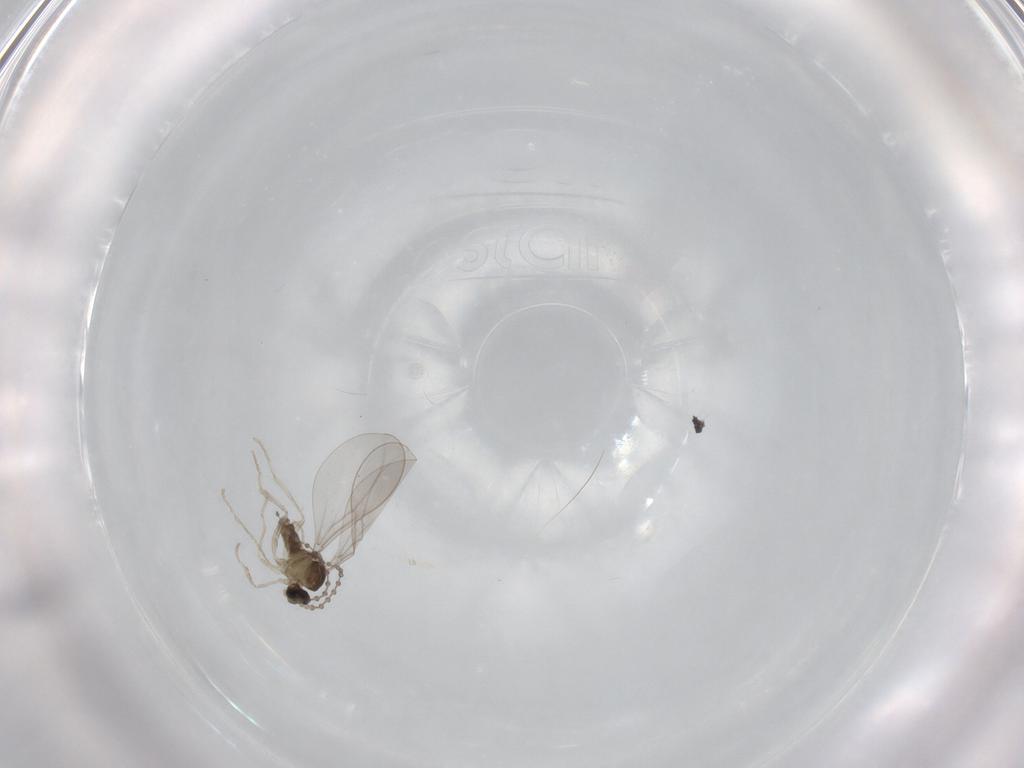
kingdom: Animalia
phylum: Arthropoda
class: Insecta
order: Diptera
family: Cecidomyiidae
